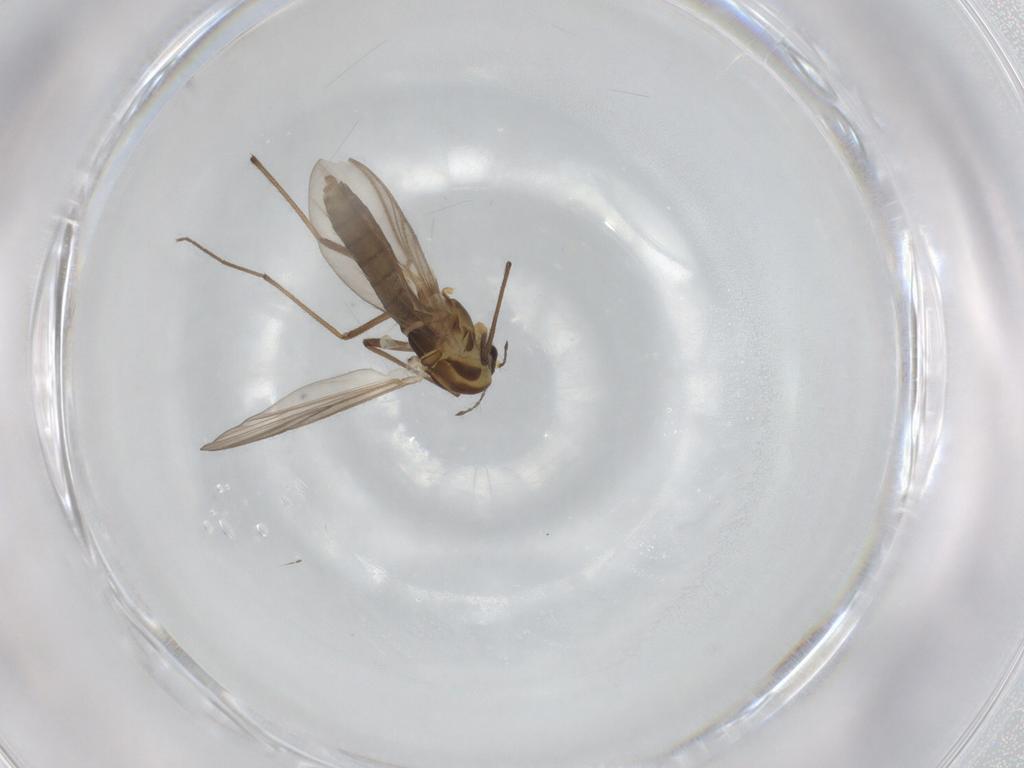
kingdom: Animalia
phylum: Arthropoda
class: Insecta
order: Diptera
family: Chironomidae
